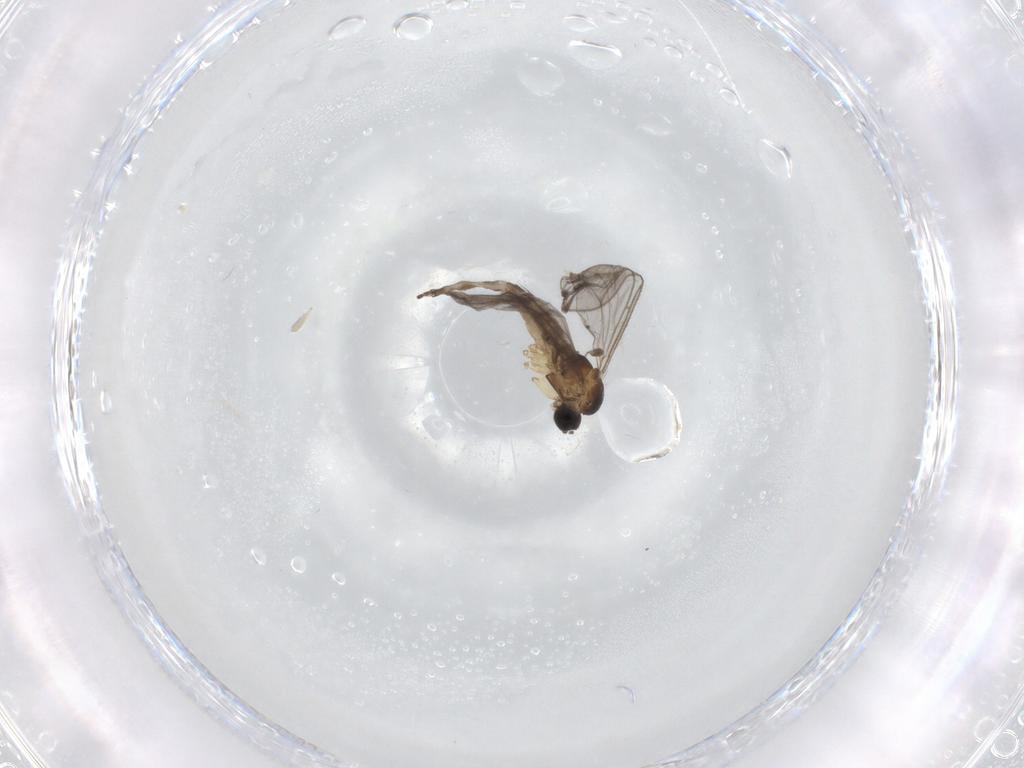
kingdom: Animalia
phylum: Arthropoda
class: Insecta
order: Diptera
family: Sciaridae
